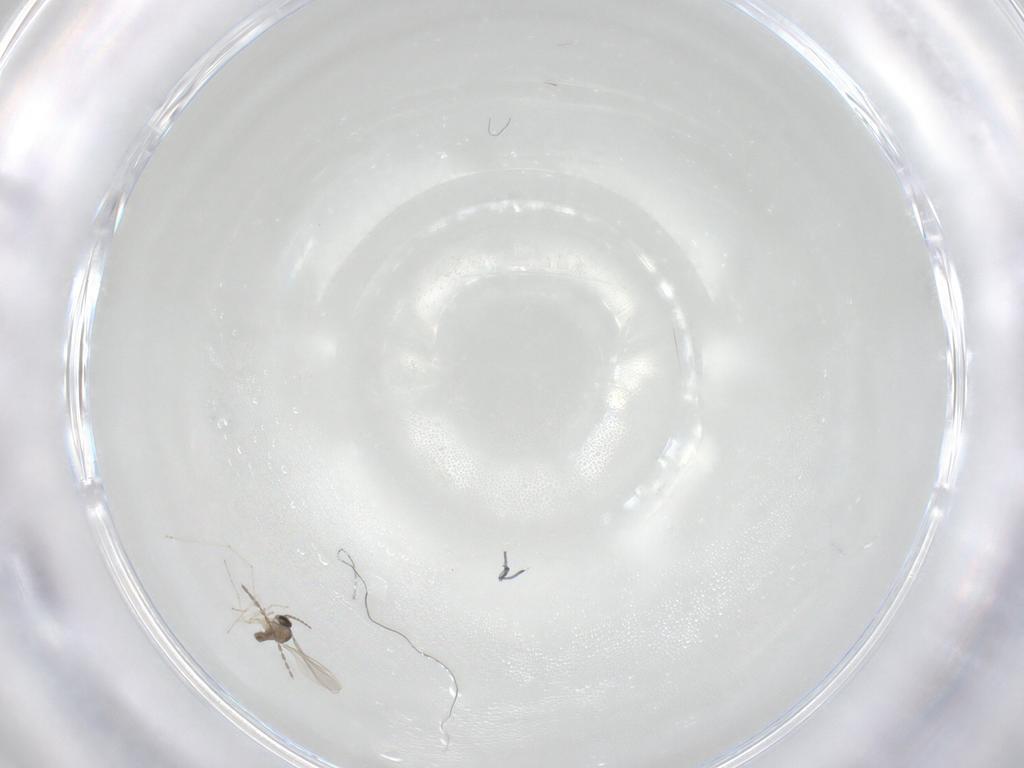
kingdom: Animalia
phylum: Arthropoda
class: Insecta
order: Diptera
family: Cecidomyiidae
